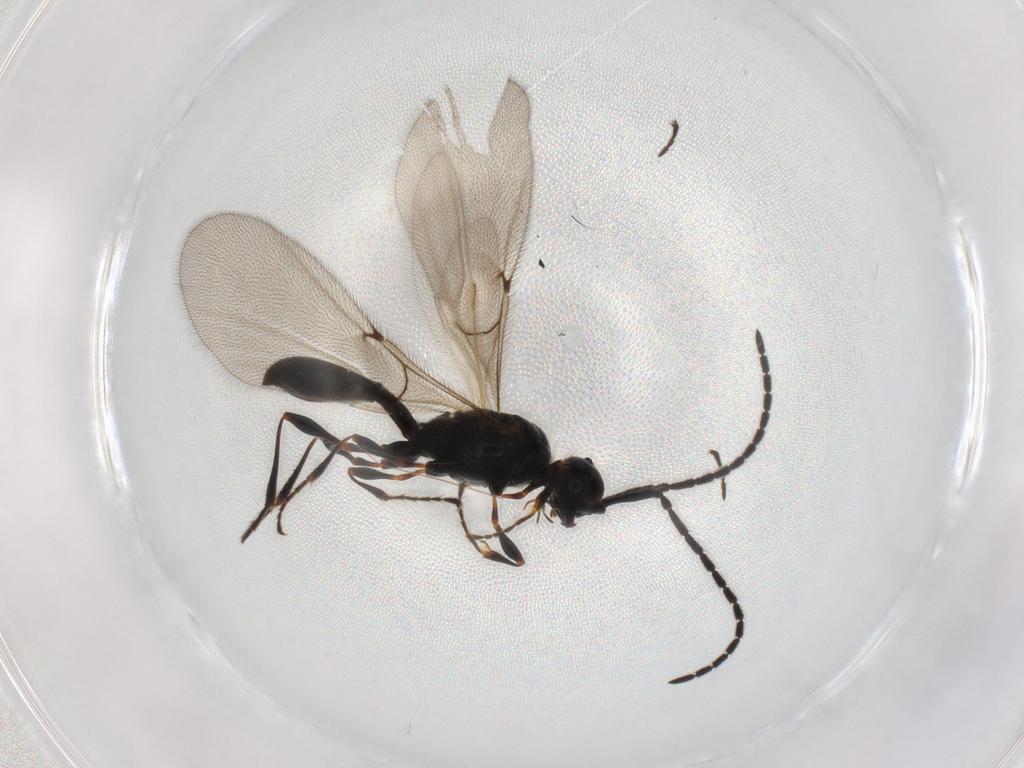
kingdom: Animalia
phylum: Arthropoda
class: Insecta
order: Hymenoptera
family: Diapriidae
